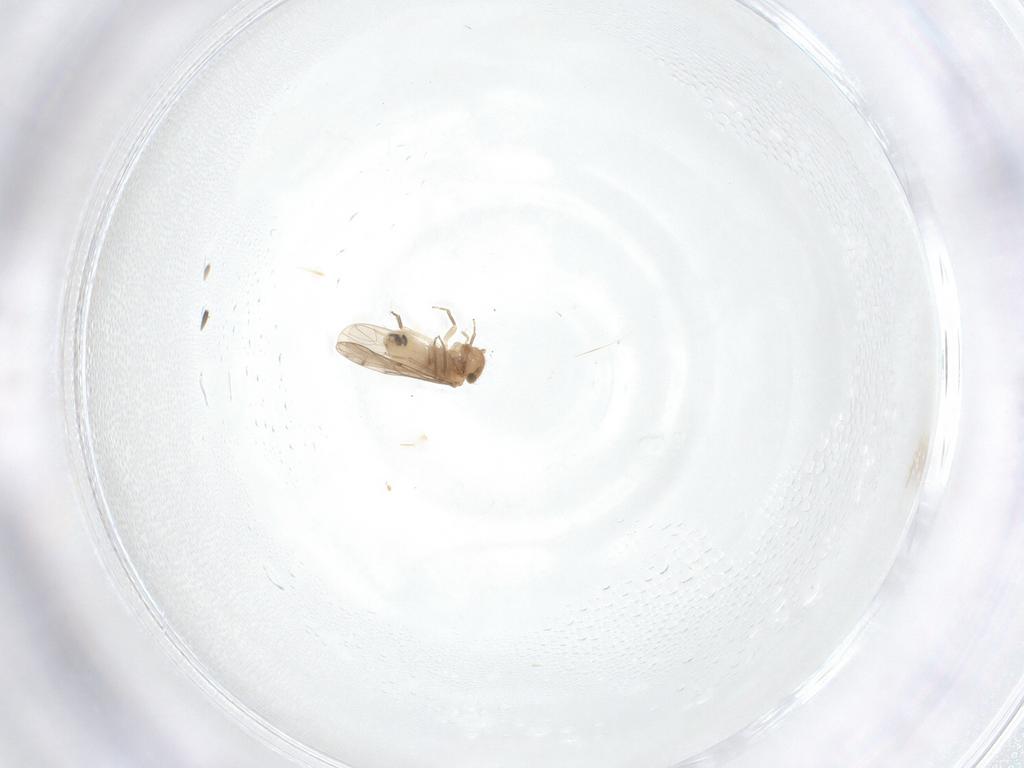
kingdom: Animalia
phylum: Arthropoda
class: Insecta
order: Psocodea
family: Ectopsocidae
